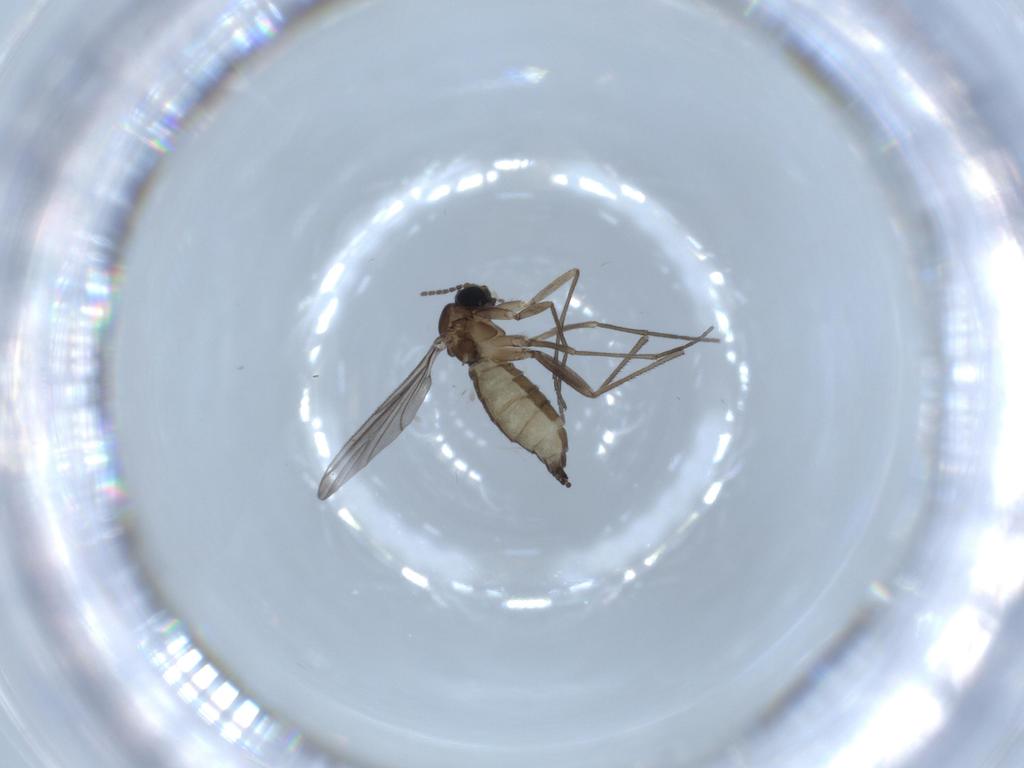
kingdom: Animalia
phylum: Arthropoda
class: Insecta
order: Diptera
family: Sciaridae
